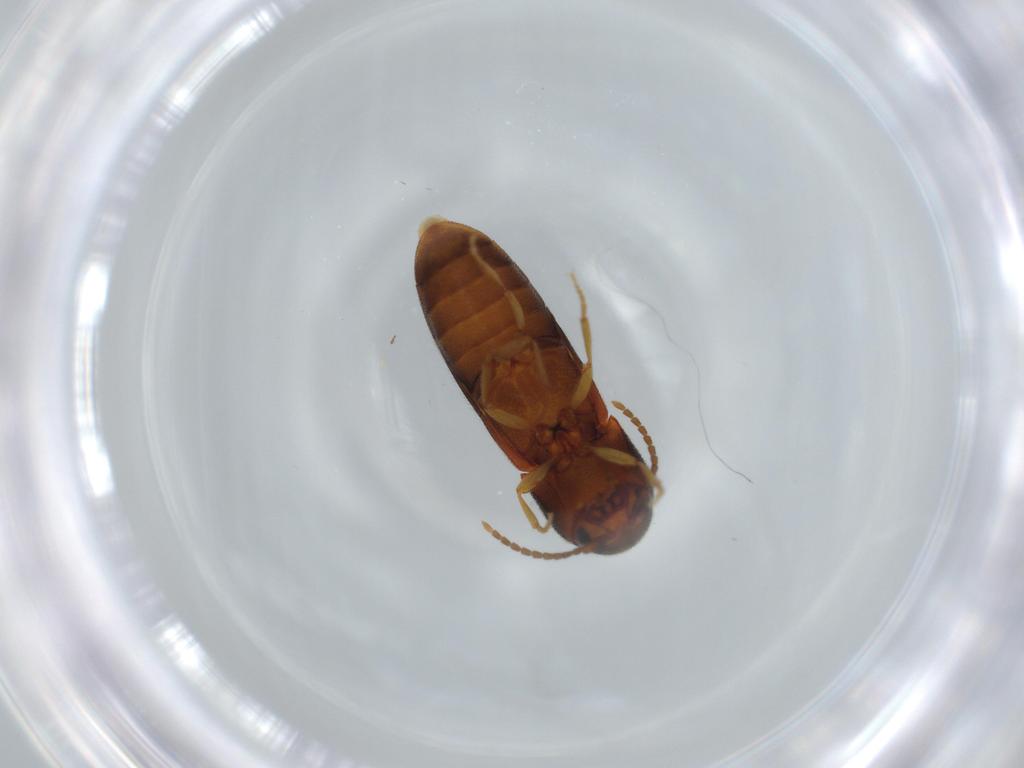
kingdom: Animalia
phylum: Arthropoda
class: Insecta
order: Coleoptera
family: Eucnemidae
